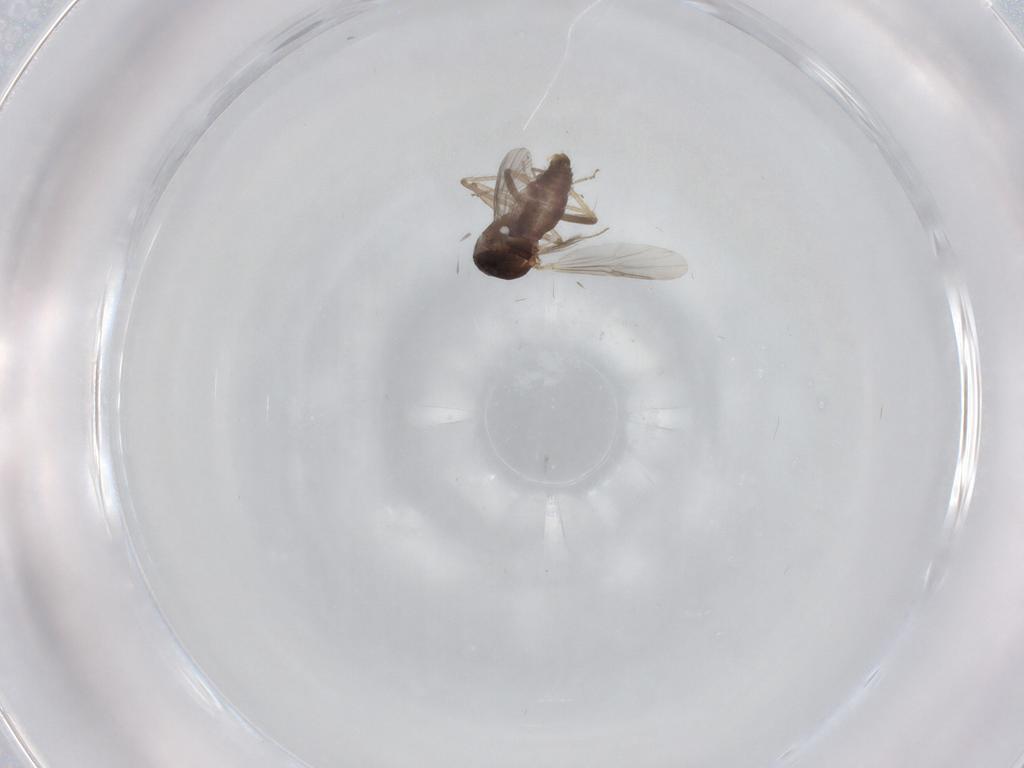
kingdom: Animalia
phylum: Arthropoda
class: Insecta
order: Diptera
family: Ceratopogonidae
